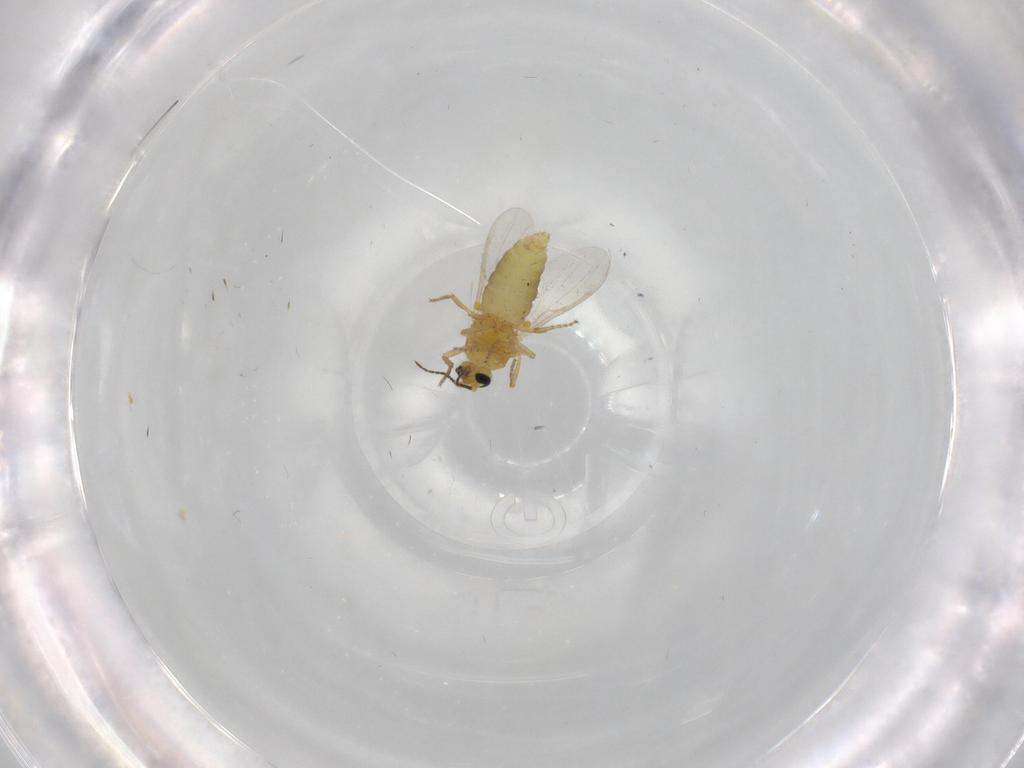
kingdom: Animalia
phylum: Arthropoda
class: Insecta
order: Diptera
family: Ceratopogonidae
